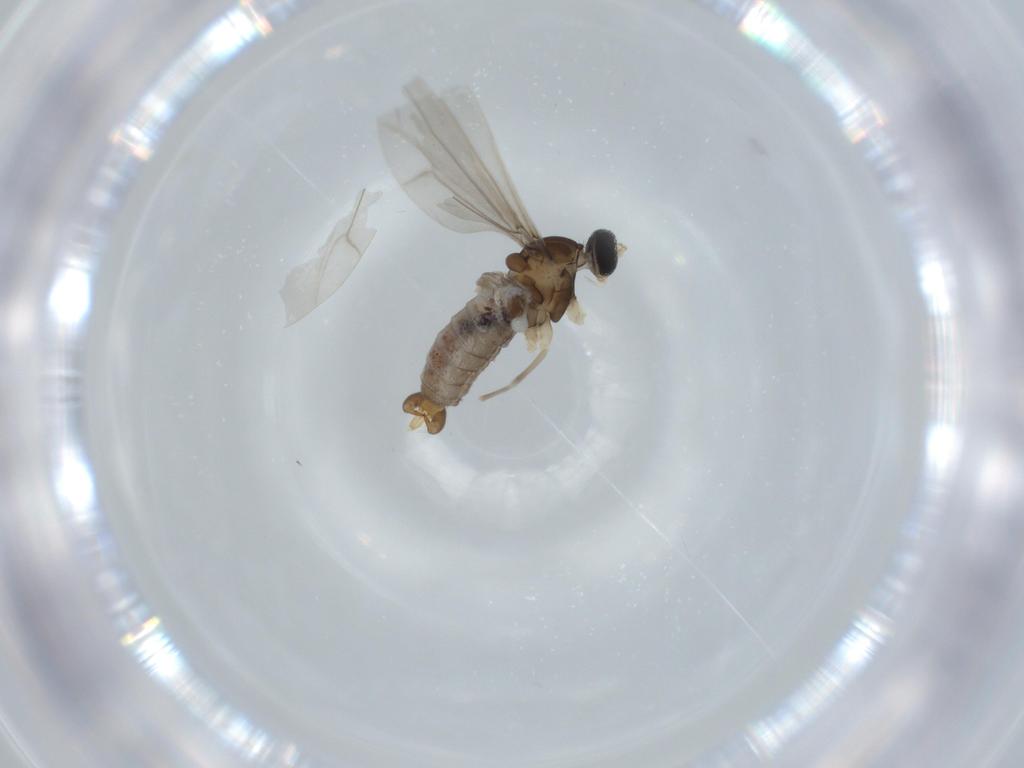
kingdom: Animalia
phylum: Arthropoda
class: Insecta
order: Diptera
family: Cecidomyiidae
